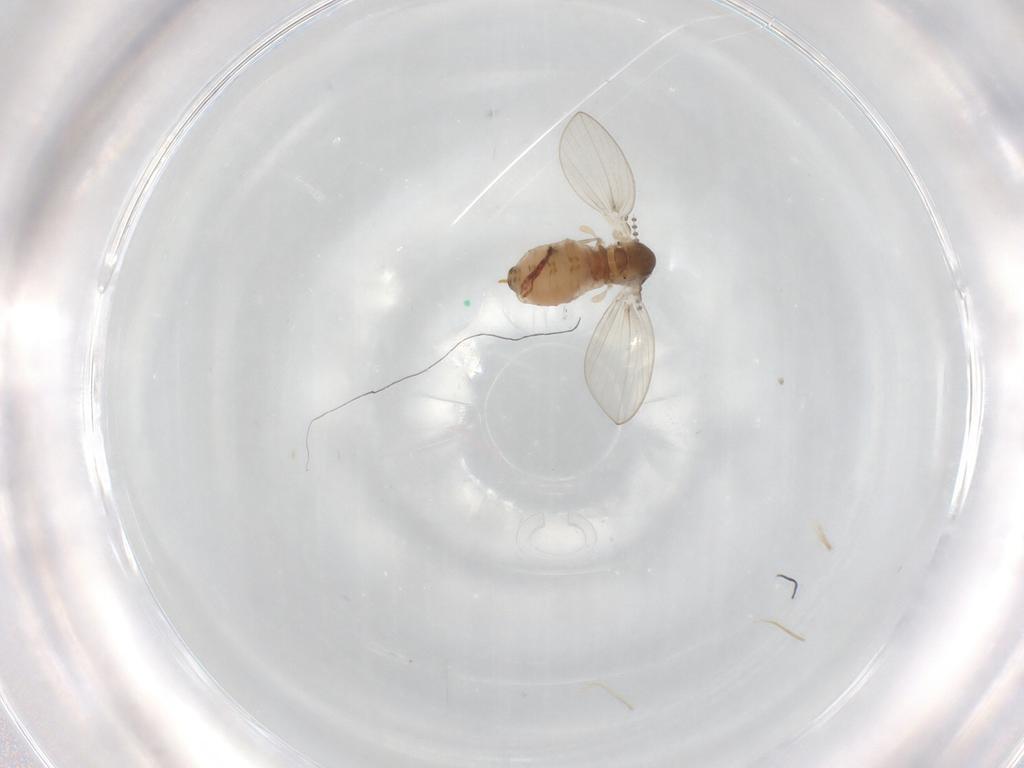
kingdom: Animalia
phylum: Arthropoda
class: Insecta
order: Diptera
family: Psychodidae
